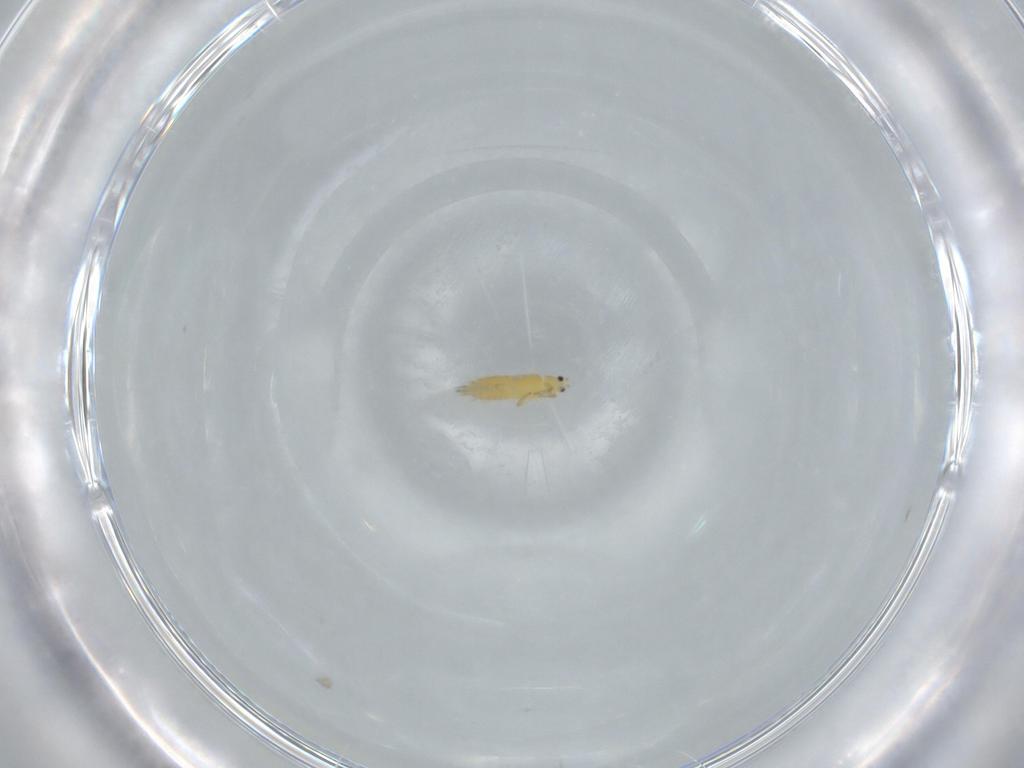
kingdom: Animalia
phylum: Arthropoda
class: Insecta
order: Thysanoptera
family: Thripidae
